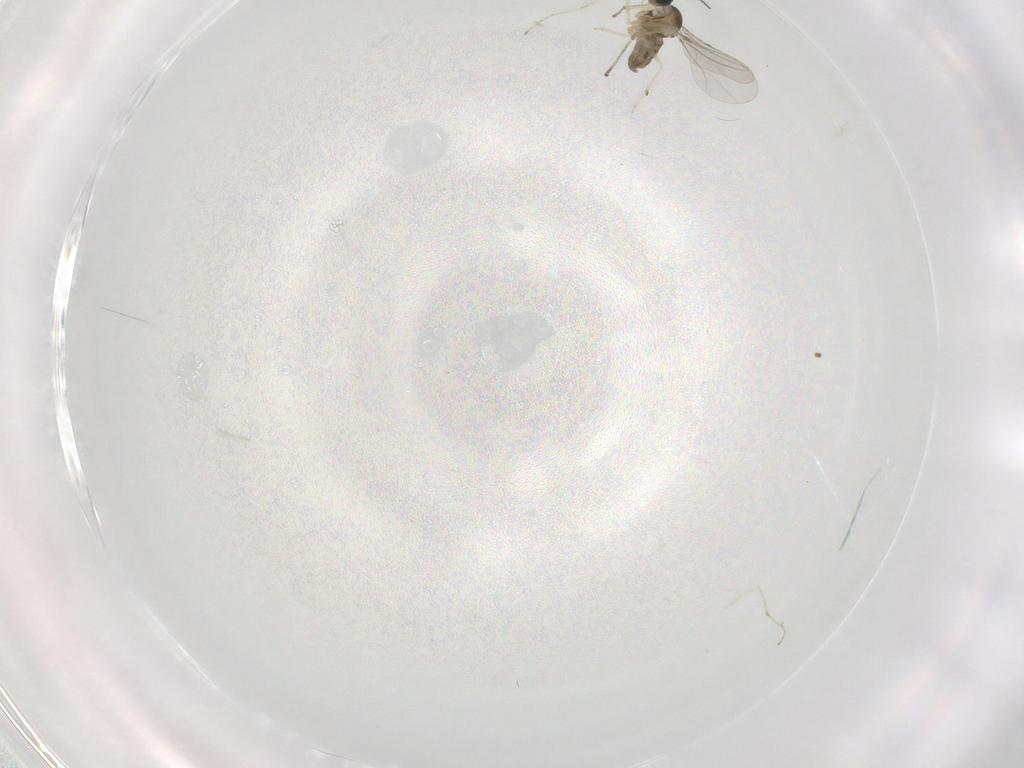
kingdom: Animalia
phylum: Arthropoda
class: Insecta
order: Diptera
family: Cecidomyiidae
